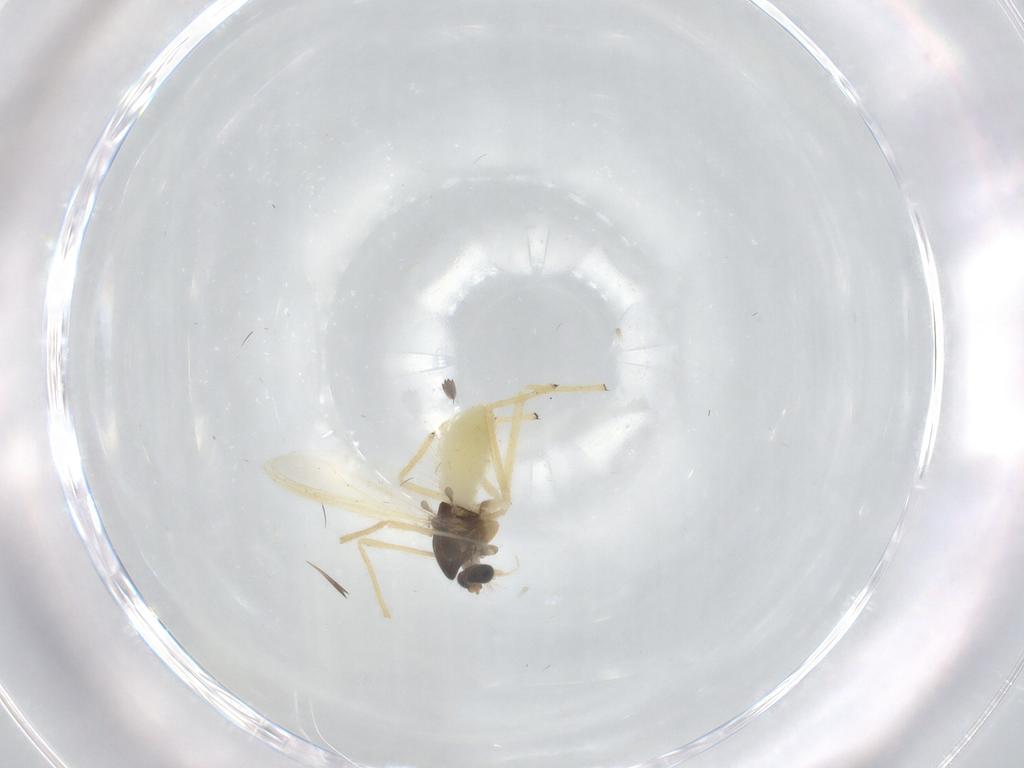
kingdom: Animalia
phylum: Arthropoda
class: Insecta
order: Diptera
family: Chironomidae
